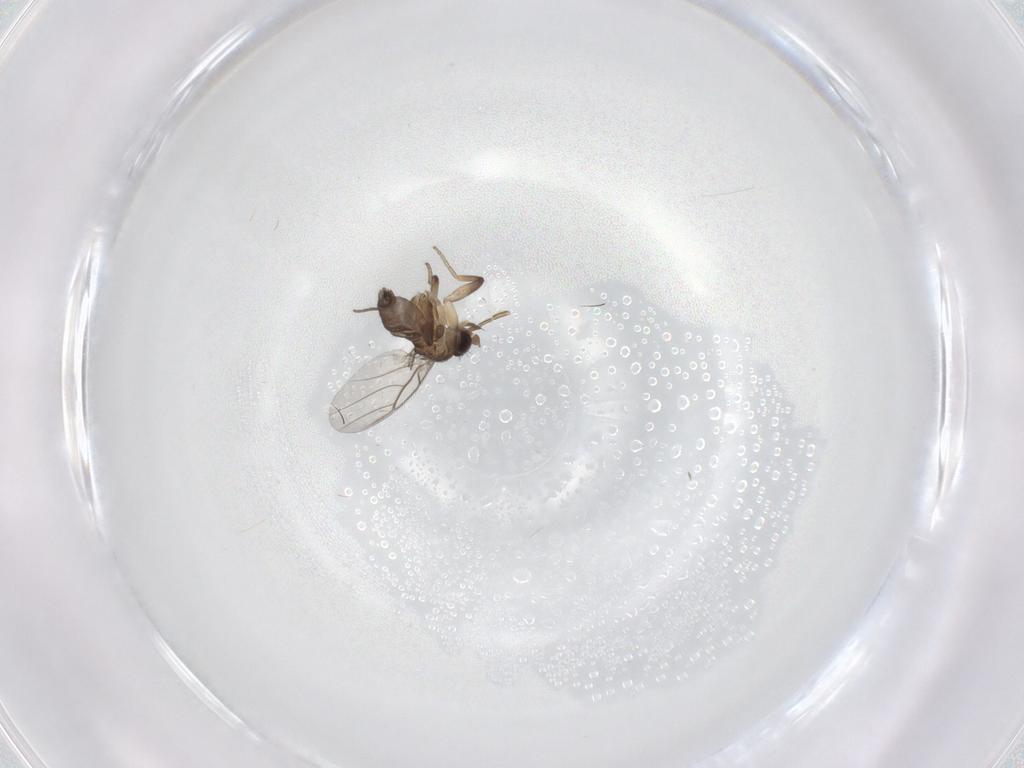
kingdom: Animalia
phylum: Arthropoda
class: Insecta
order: Diptera
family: Phoridae
